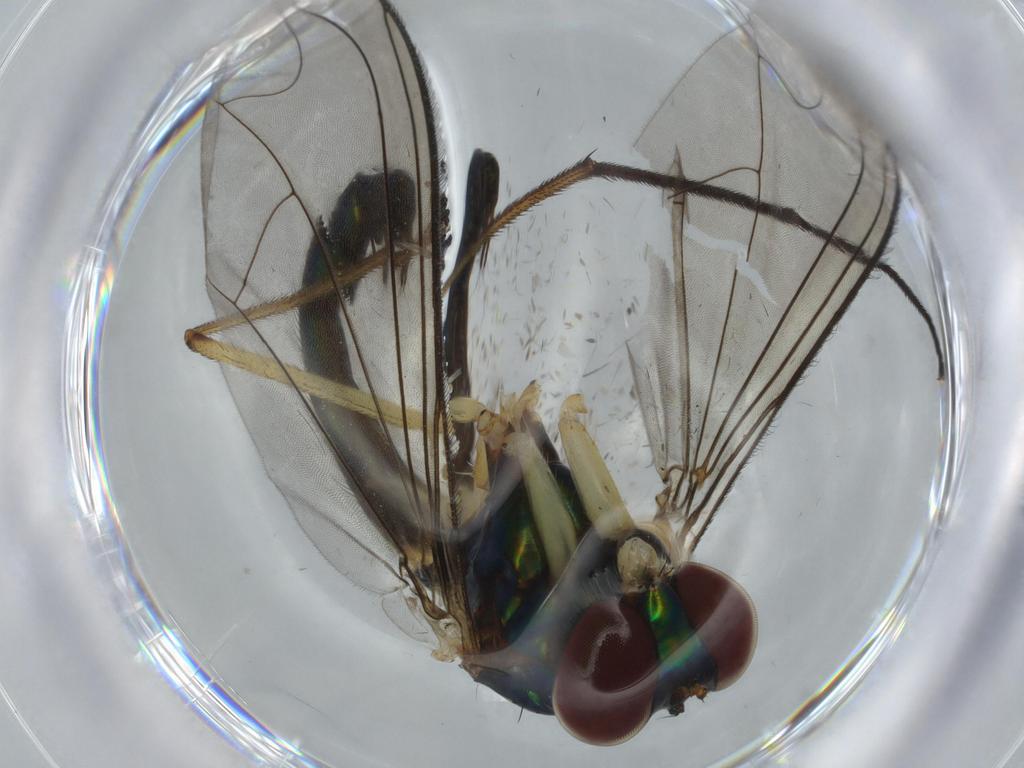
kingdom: Animalia
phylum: Arthropoda
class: Insecta
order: Diptera
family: Dolichopodidae
